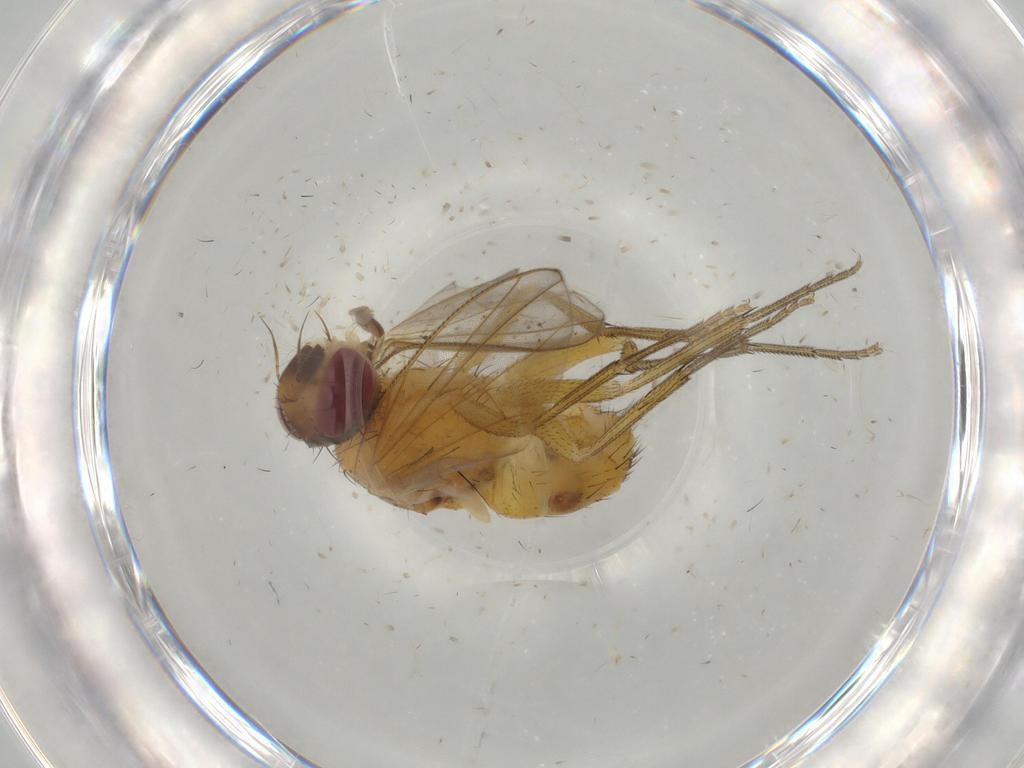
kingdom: Animalia
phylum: Arthropoda
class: Insecta
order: Diptera
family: Muscidae
